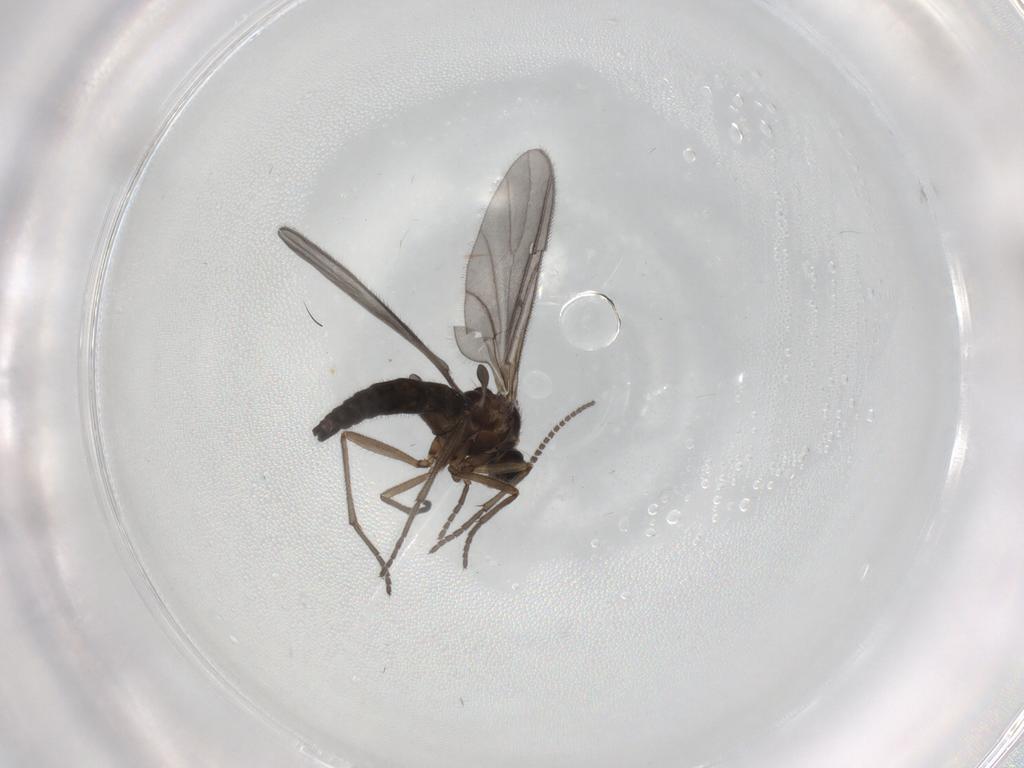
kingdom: Animalia
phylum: Arthropoda
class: Insecta
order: Diptera
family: Sciaridae
